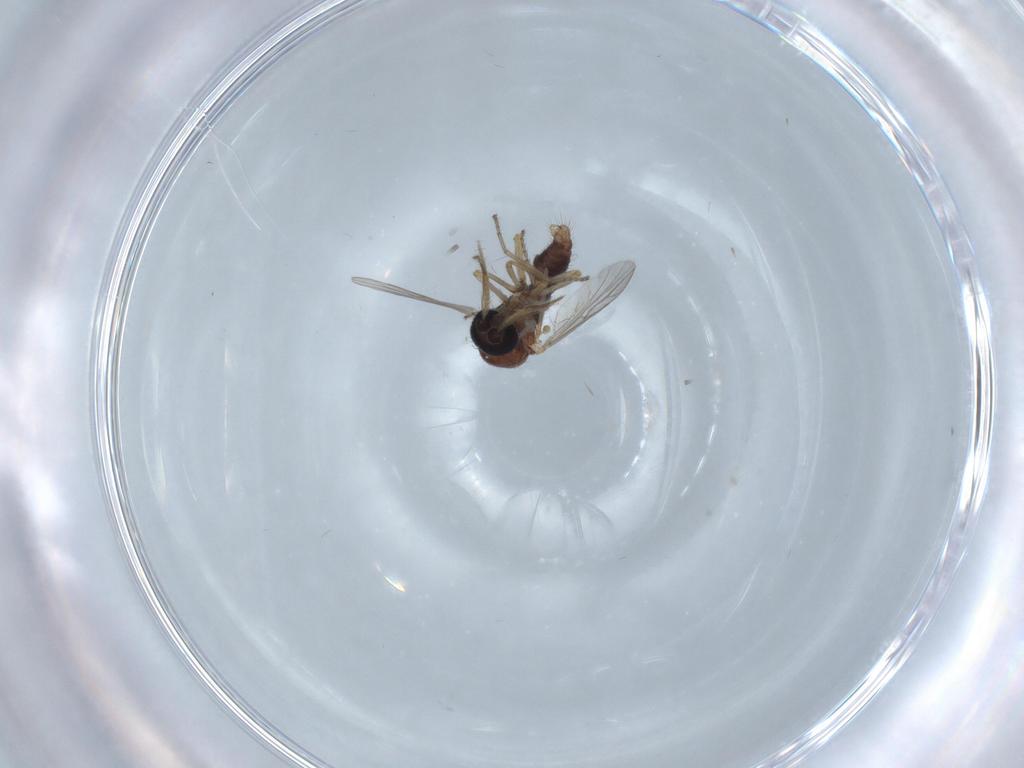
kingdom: Animalia
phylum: Arthropoda
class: Insecta
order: Diptera
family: Ceratopogonidae
